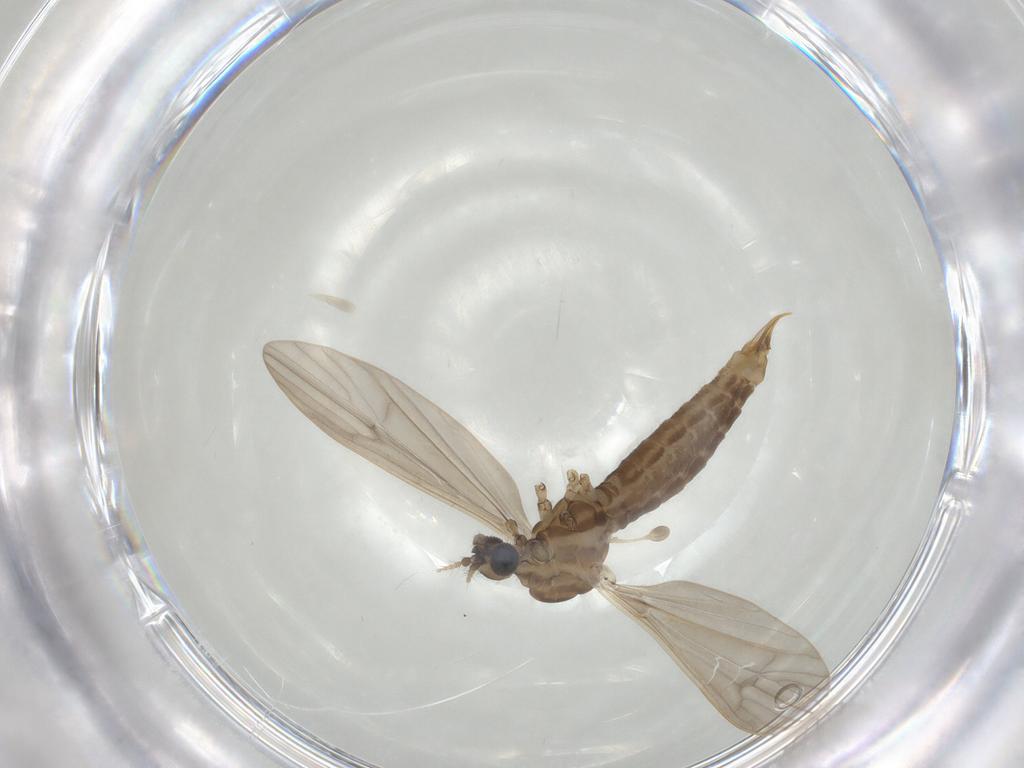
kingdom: Animalia
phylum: Arthropoda
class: Insecta
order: Diptera
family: Limoniidae
